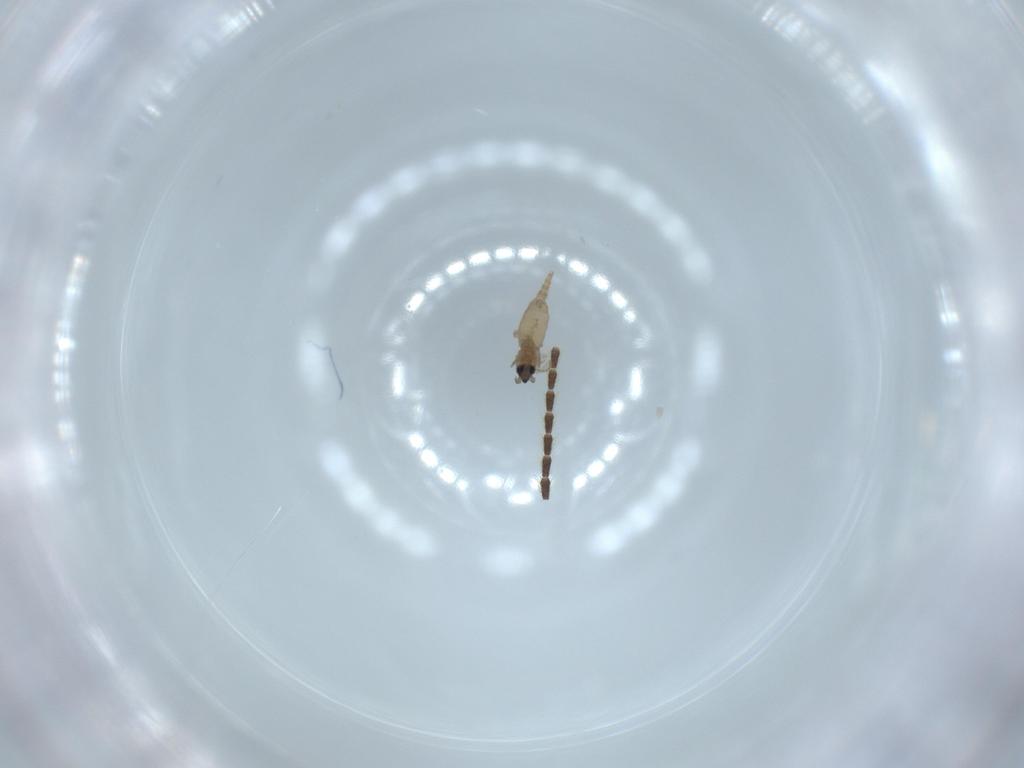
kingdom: Animalia
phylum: Arthropoda
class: Insecta
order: Diptera
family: Cecidomyiidae
